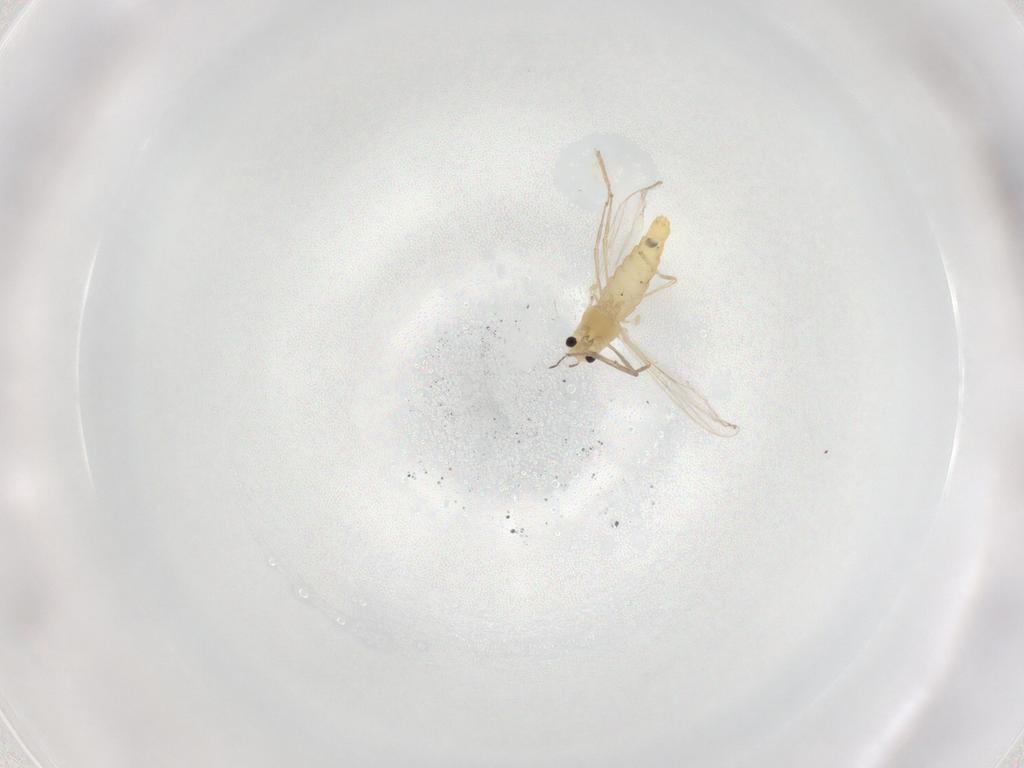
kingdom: Animalia
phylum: Arthropoda
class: Insecta
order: Diptera
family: Chironomidae
